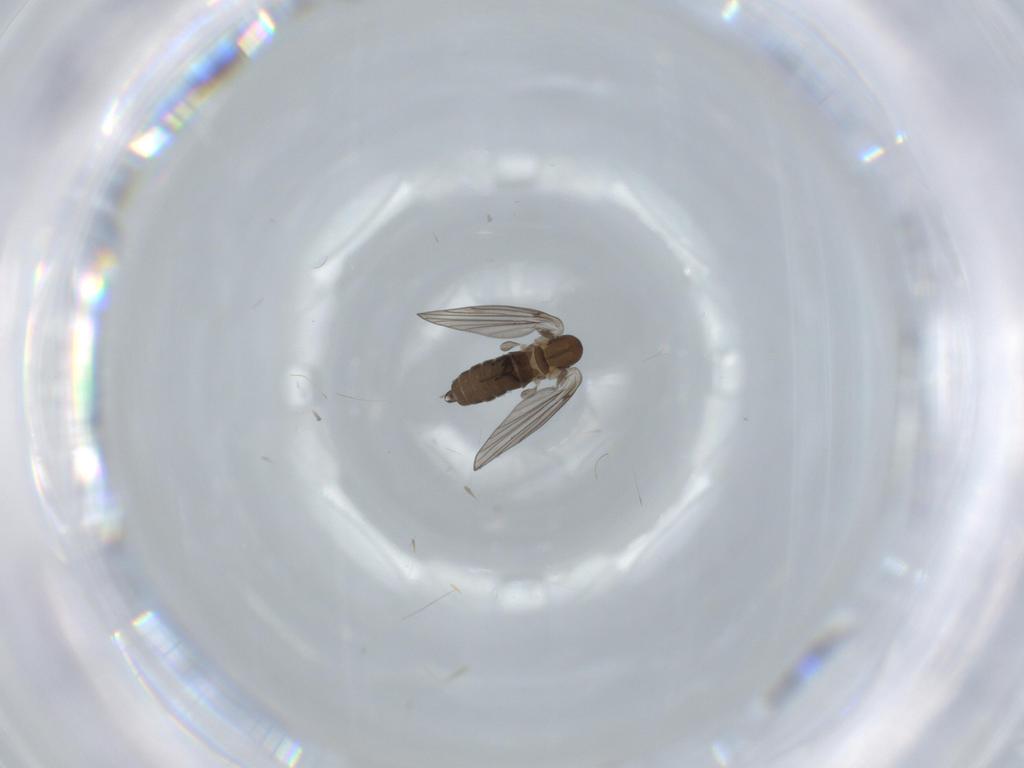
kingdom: Animalia
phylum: Arthropoda
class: Insecta
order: Diptera
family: Psychodidae
